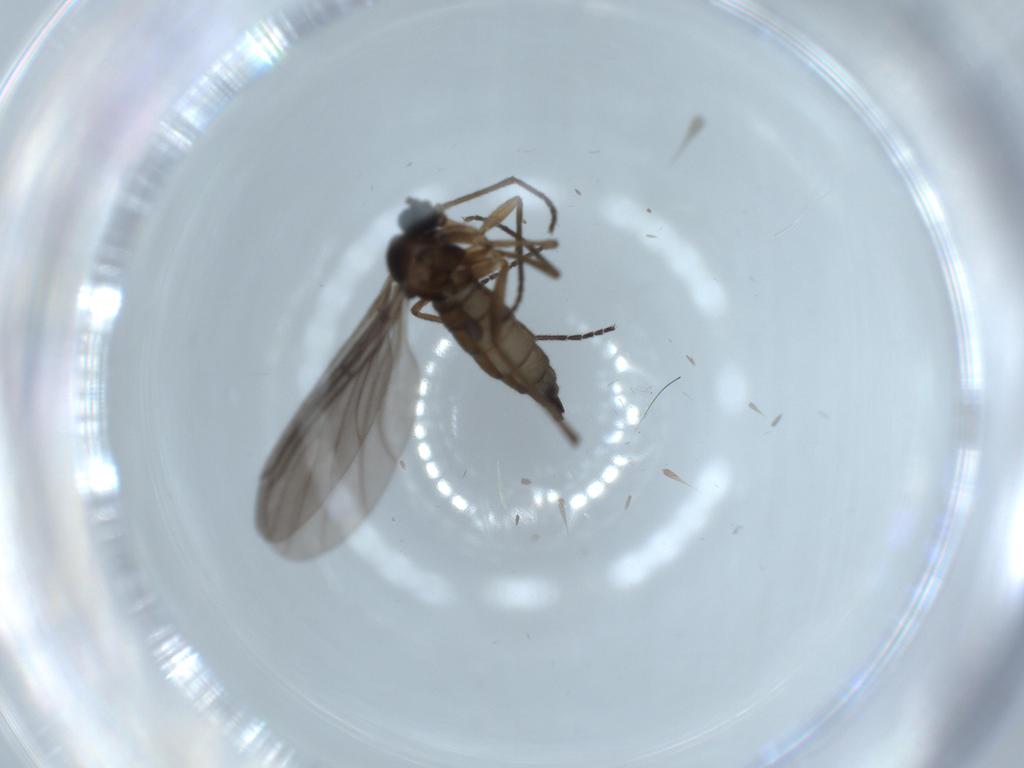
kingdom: Animalia
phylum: Arthropoda
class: Insecta
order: Diptera
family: Sciaridae
